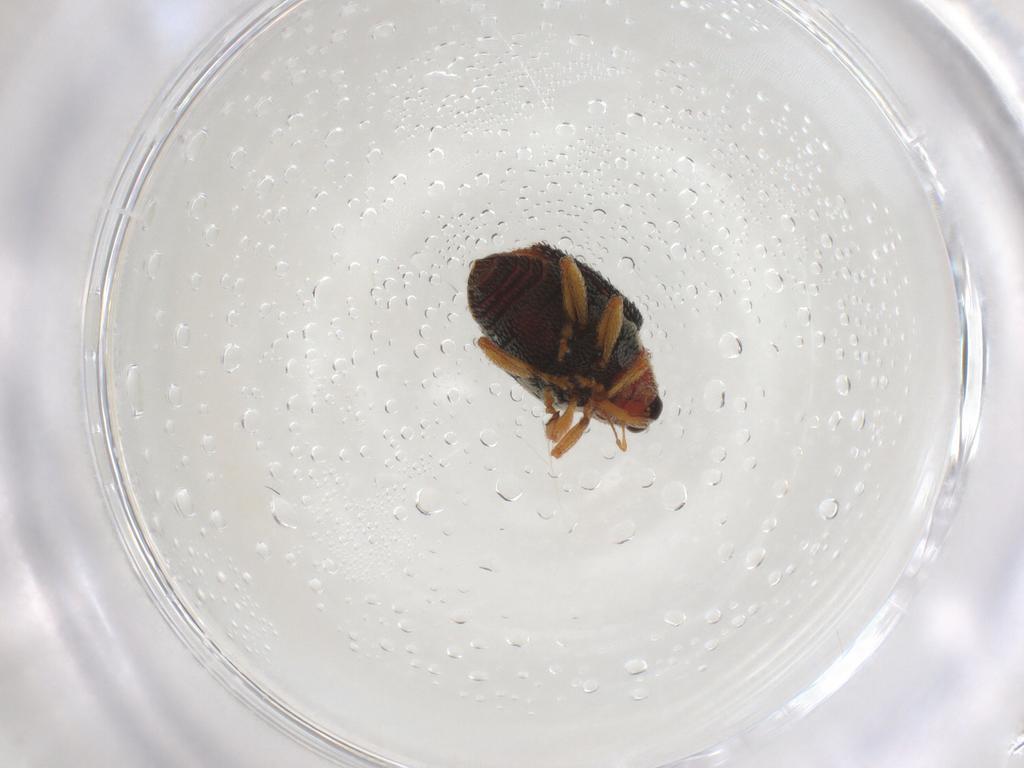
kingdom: Animalia
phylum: Arthropoda
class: Insecta
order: Coleoptera
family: Curculionidae
